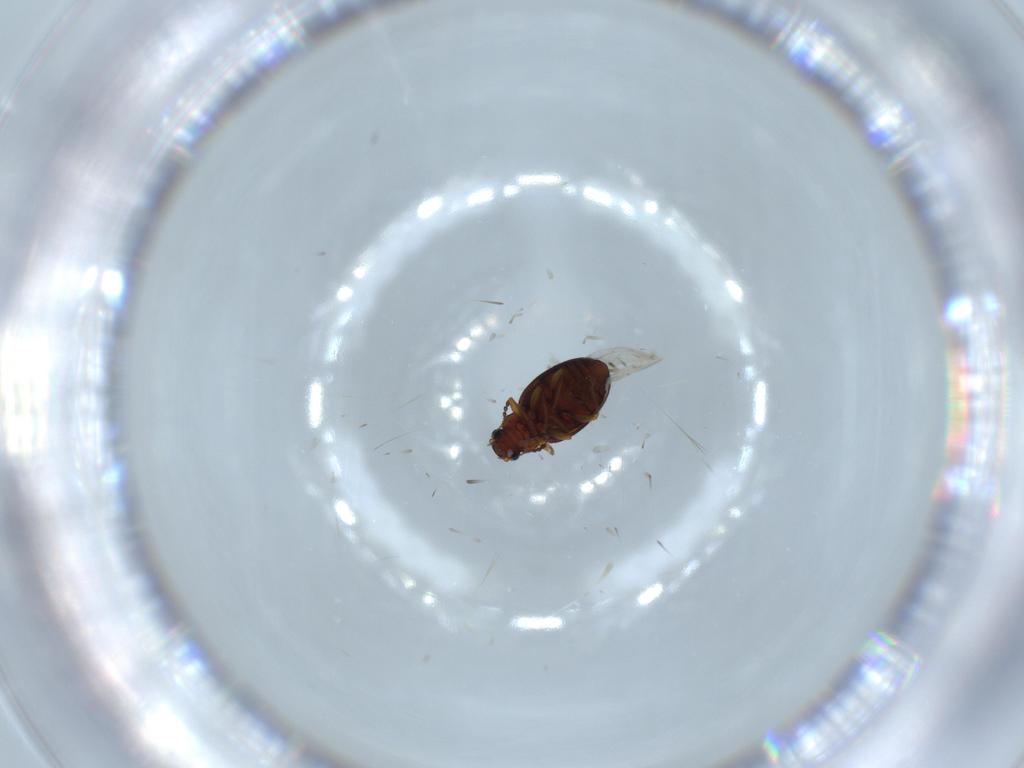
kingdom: Animalia
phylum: Arthropoda
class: Insecta
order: Coleoptera
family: Latridiidae
